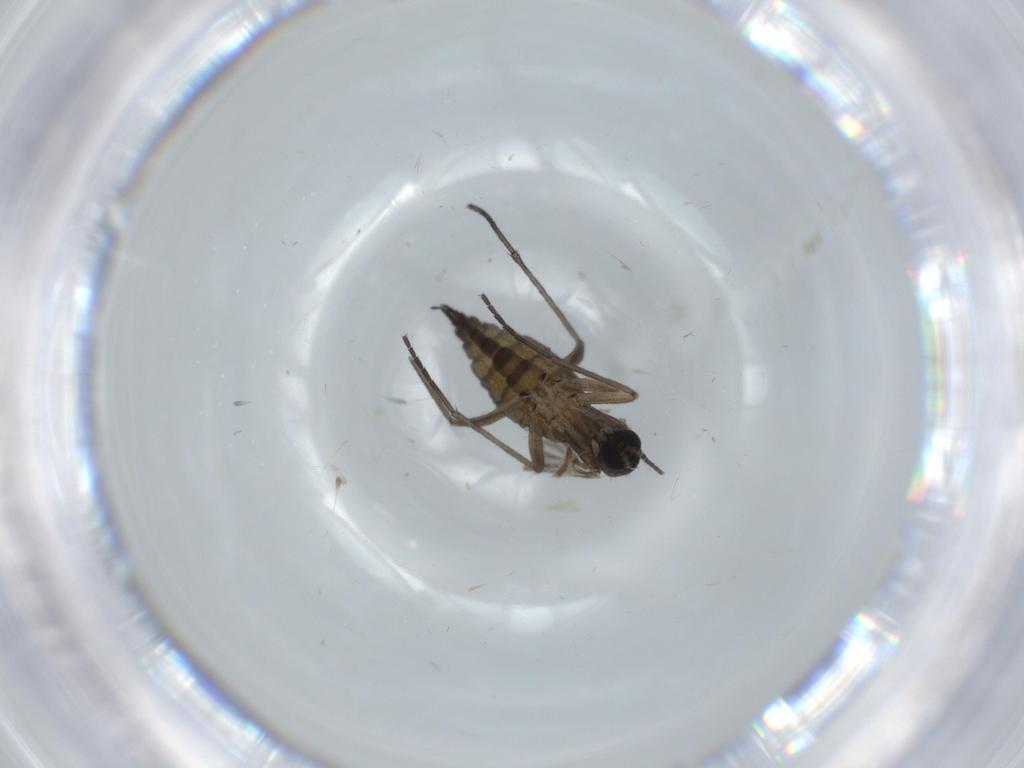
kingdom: Animalia
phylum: Arthropoda
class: Insecta
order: Diptera
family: Sciaridae
